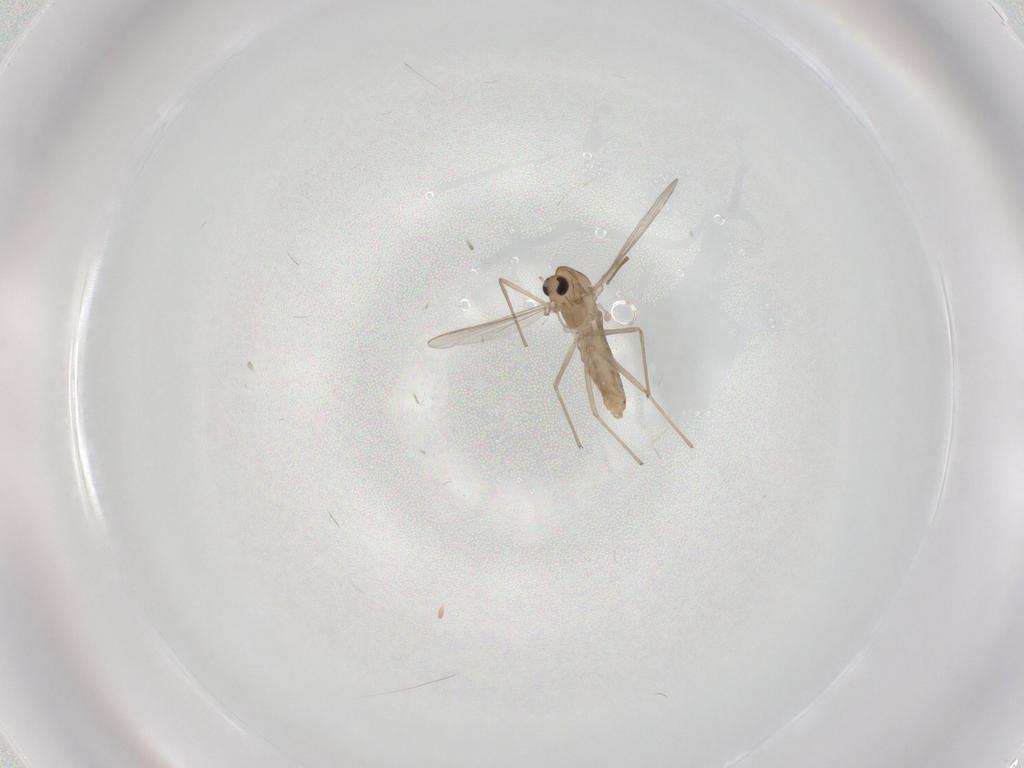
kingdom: Animalia
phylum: Arthropoda
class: Insecta
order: Diptera
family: Chironomidae
